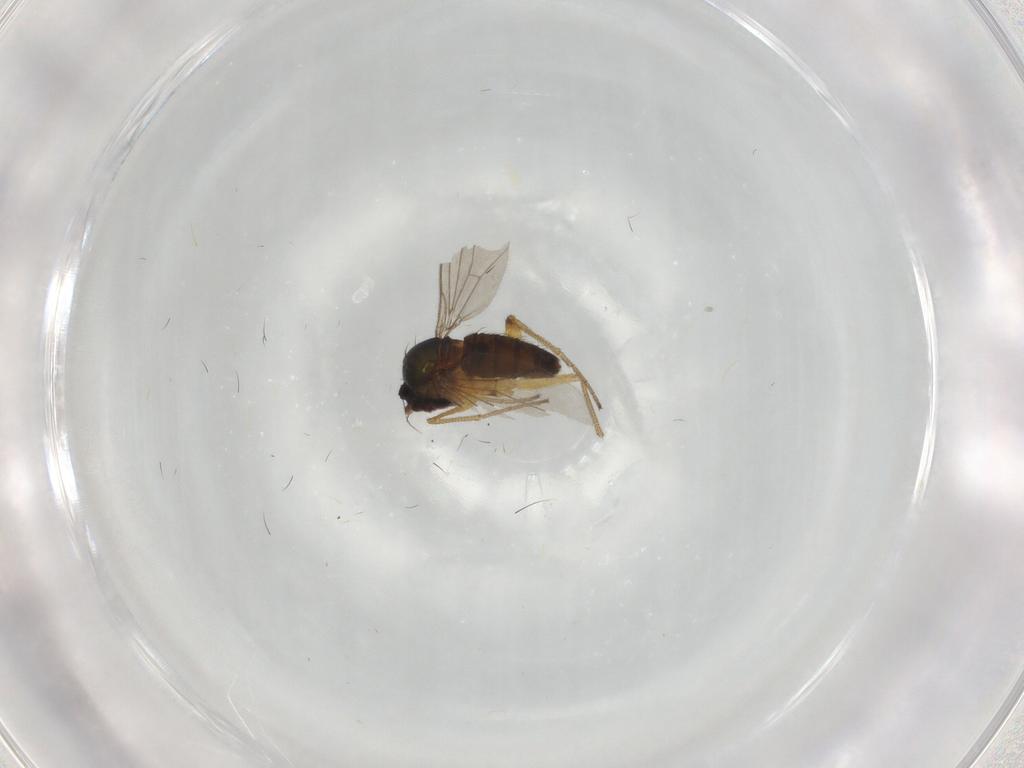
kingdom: Animalia
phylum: Arthropoda
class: Insecta
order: Diptera
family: Dolichopodidae
